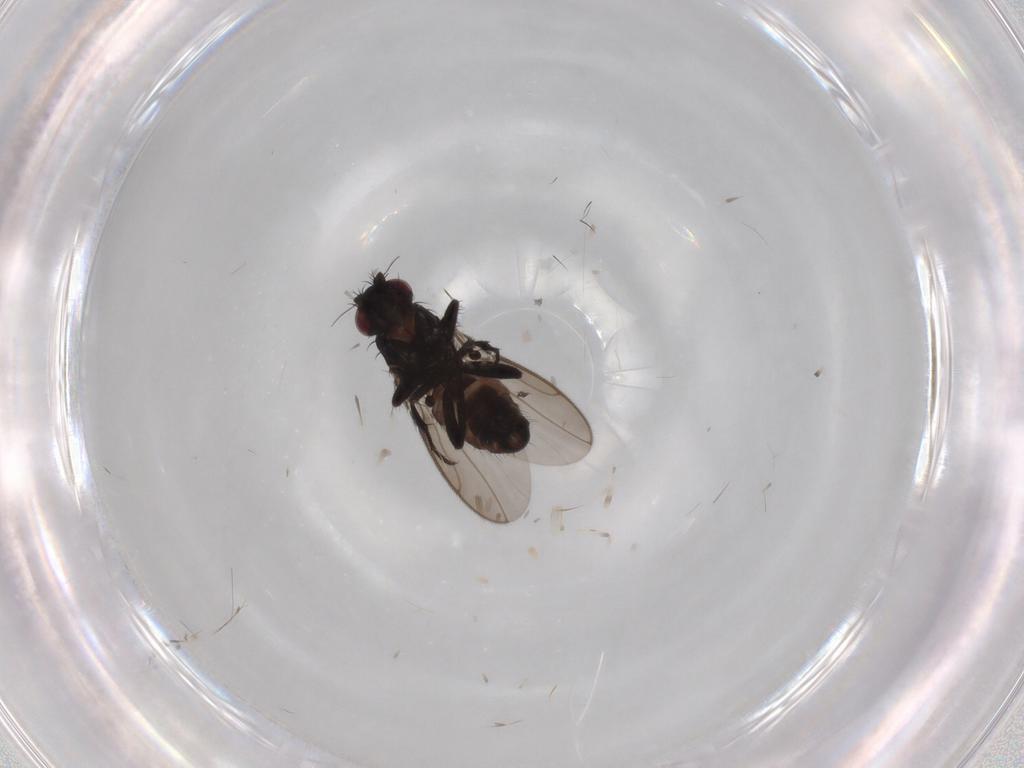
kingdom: Animalia
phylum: Arthropoda
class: Insecta
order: Diptera
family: Sphaeroceridae
